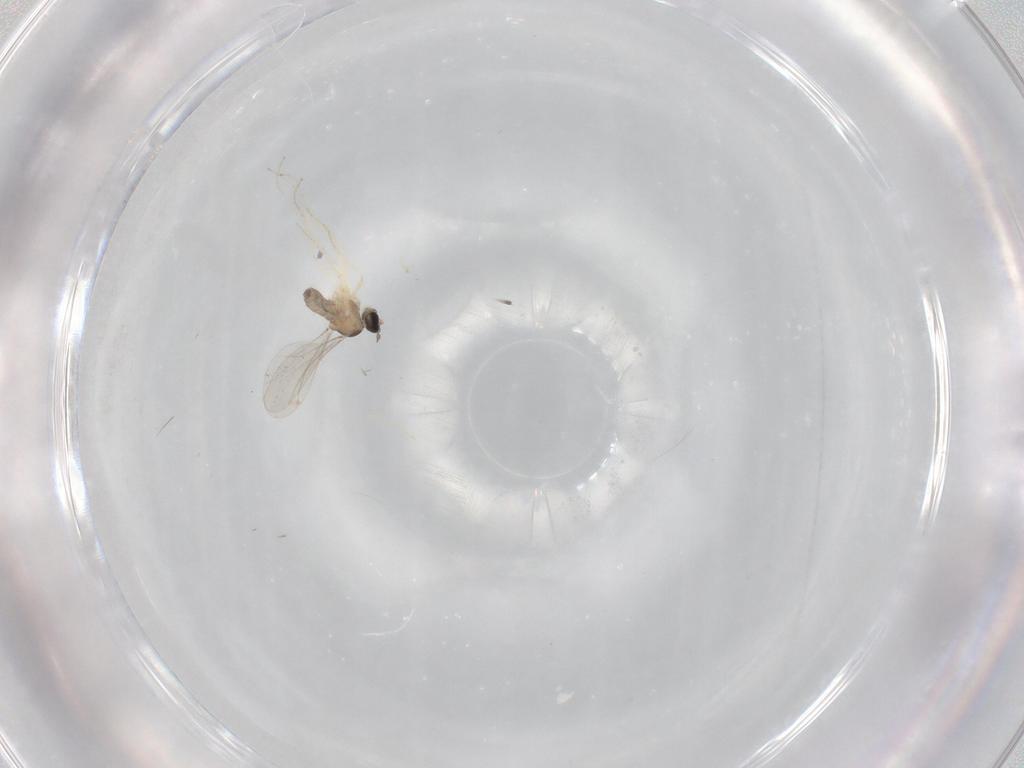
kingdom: Animalia
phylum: Arthropoda
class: Insecta
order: Diptera
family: Cecidomyiidae
